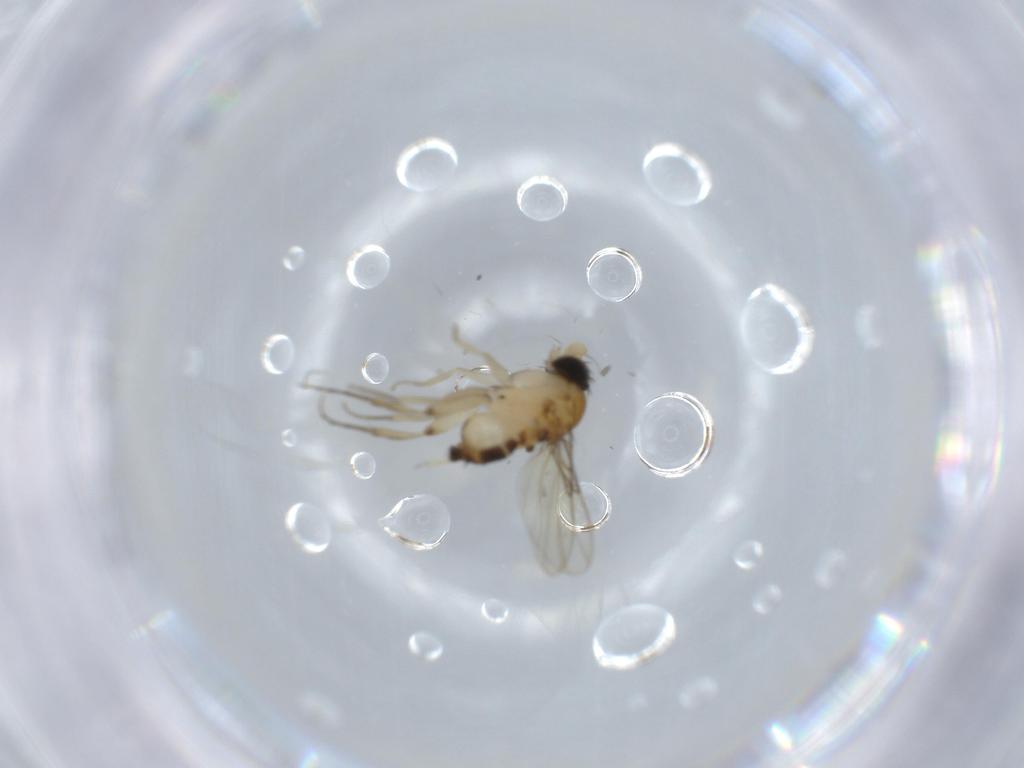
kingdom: Animalia
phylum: Arthropoda
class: Insecta
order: Diptera
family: Phoridae
